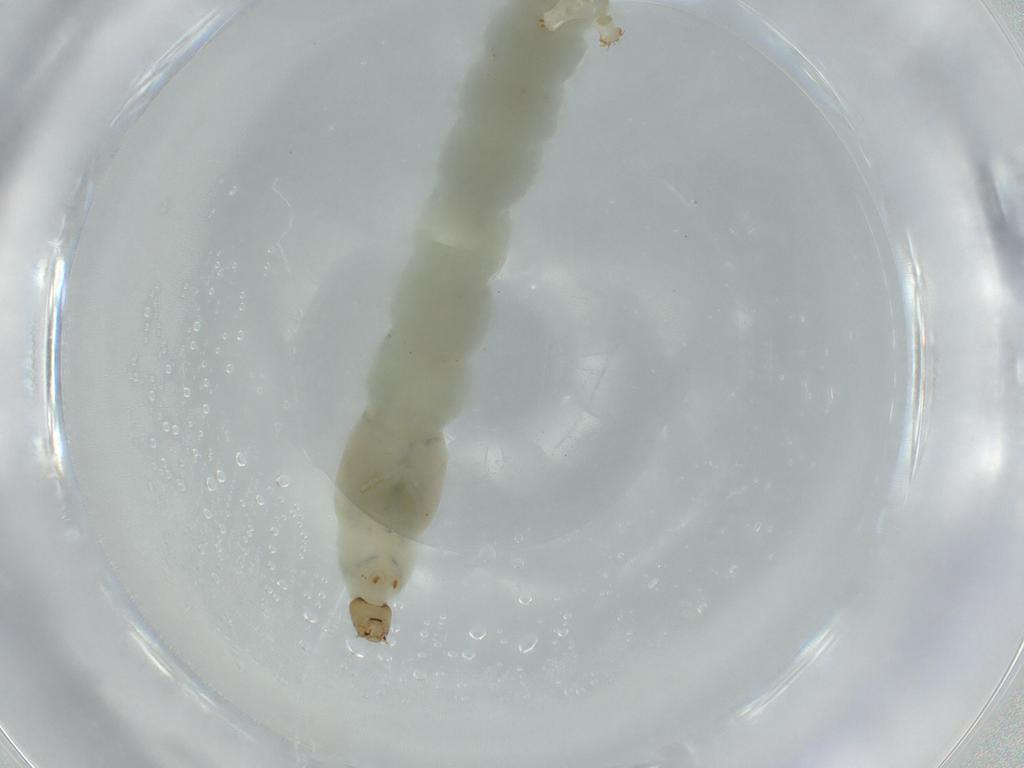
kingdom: Animalia
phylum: Arthropoda
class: Insecta
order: Diptera
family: Chironomidae
